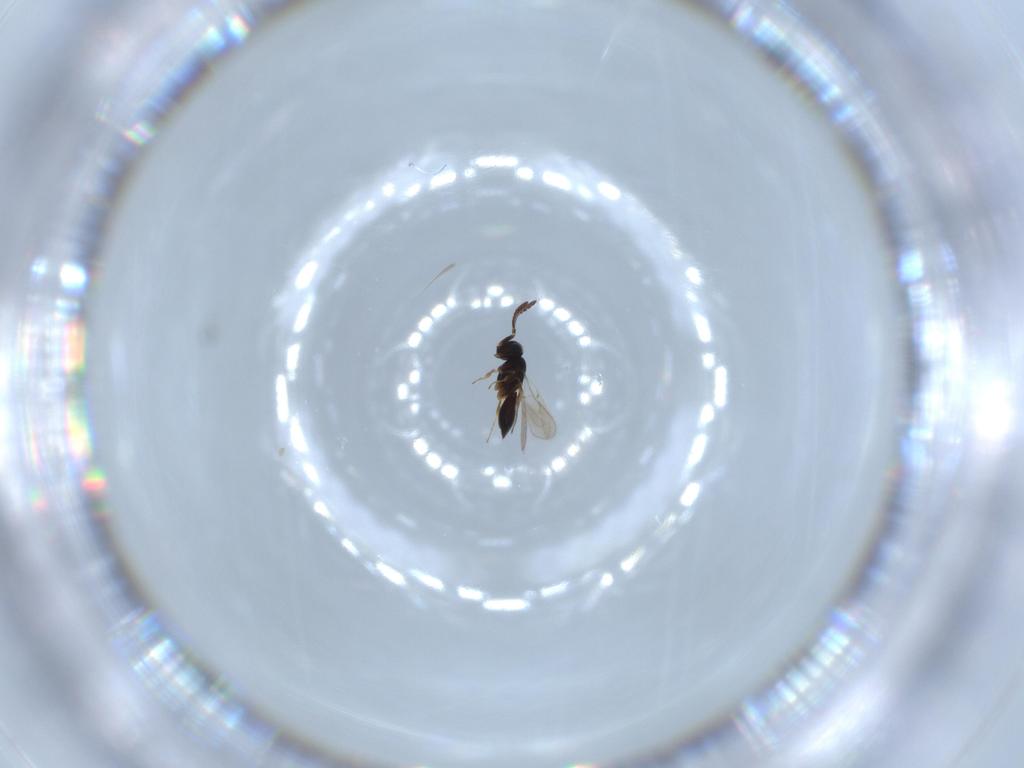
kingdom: Animalia
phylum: Arthropoda
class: Insecta
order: Hymenoptera
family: Scelionidae
